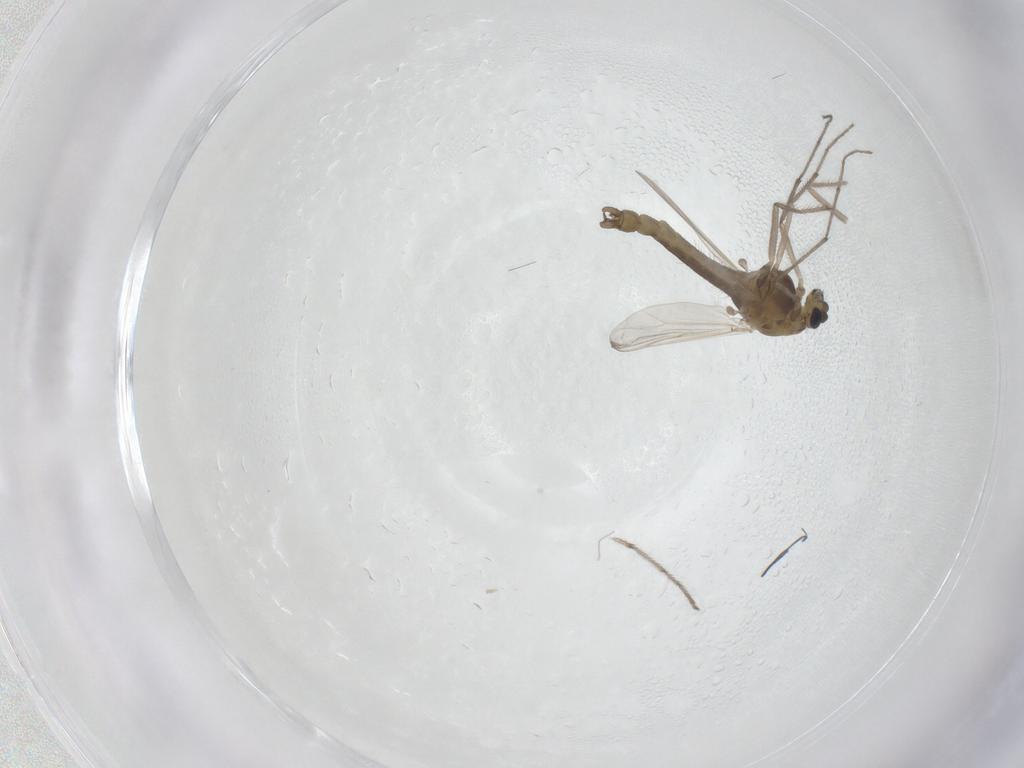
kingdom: Animalia
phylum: Arthropoda
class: Insecta
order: Diptera
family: Chironomidae
